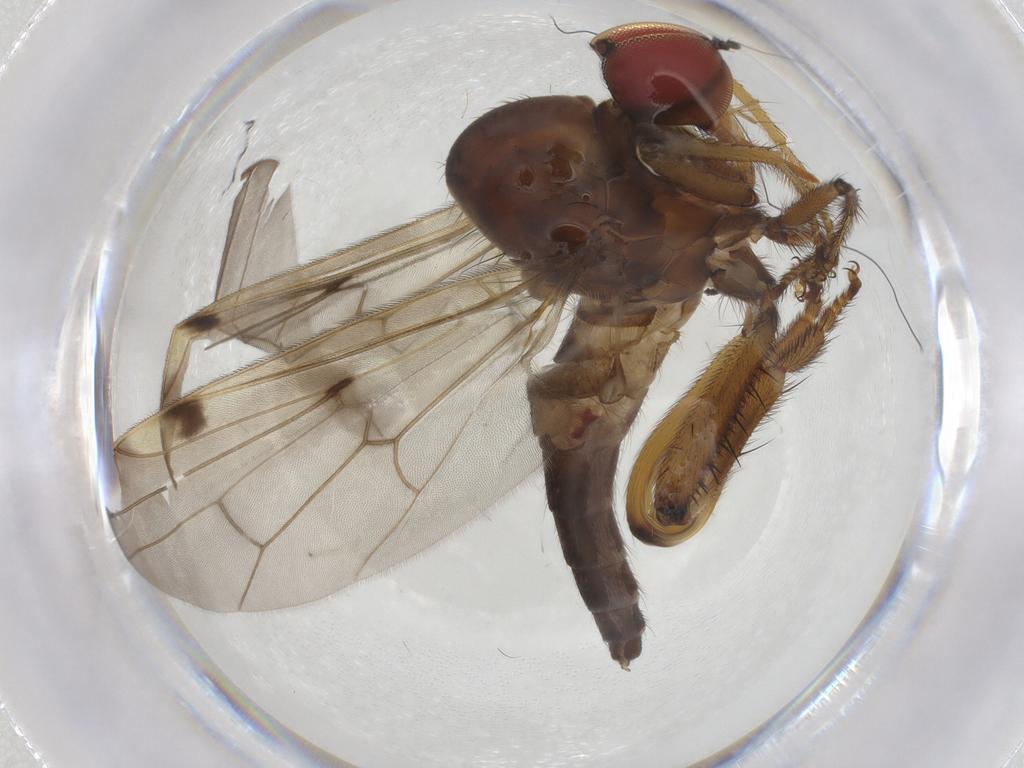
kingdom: Animalia
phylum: Arthropoda
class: Insecta
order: Diptera
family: Hybotidae
